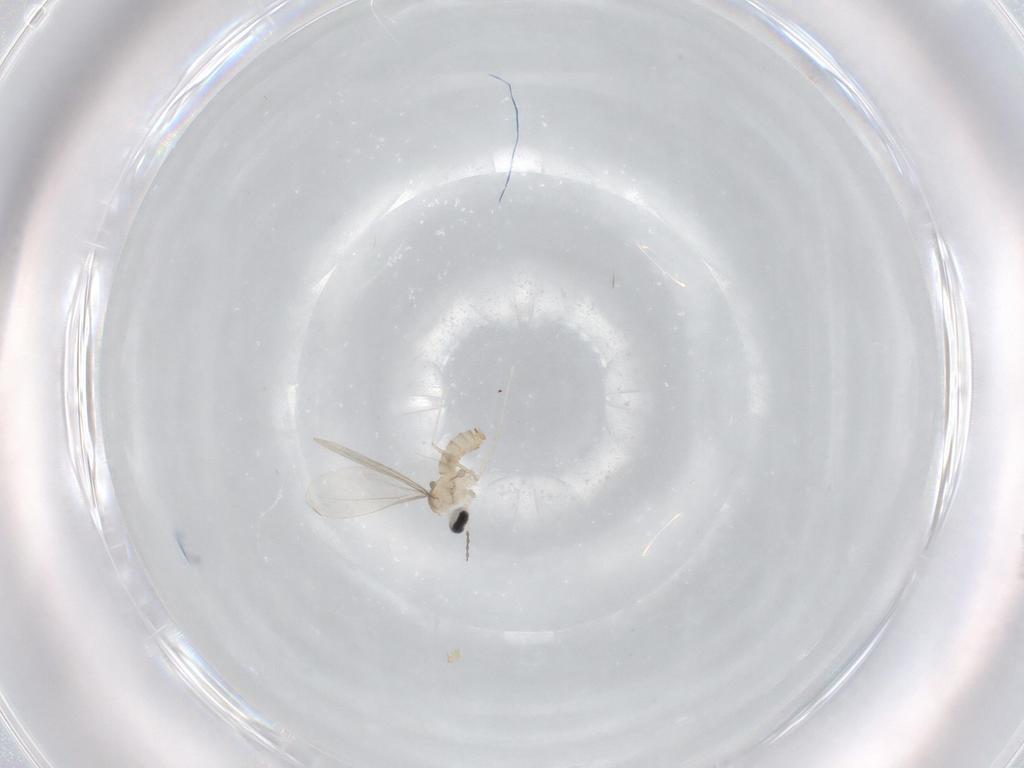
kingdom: Animalia
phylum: Arthropoda
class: Insecta
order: Diptera
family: Cecidomyiidae
